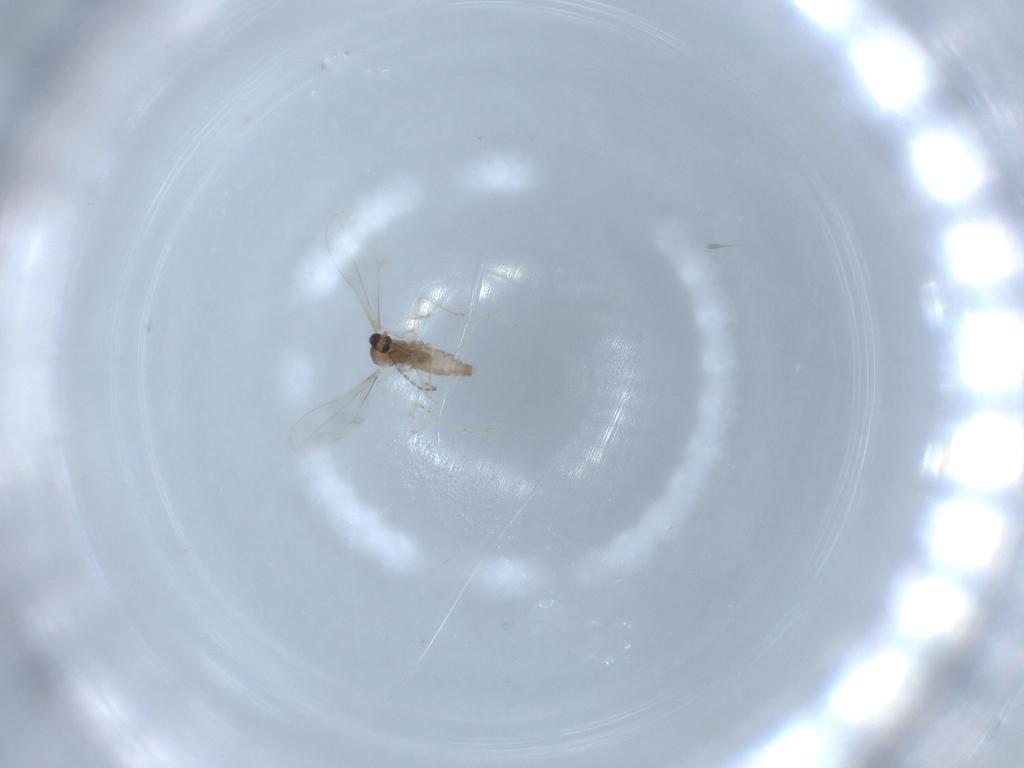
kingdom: Animalia
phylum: Arthropoda
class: Insecta
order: Diptera
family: Cecidomyiidae
